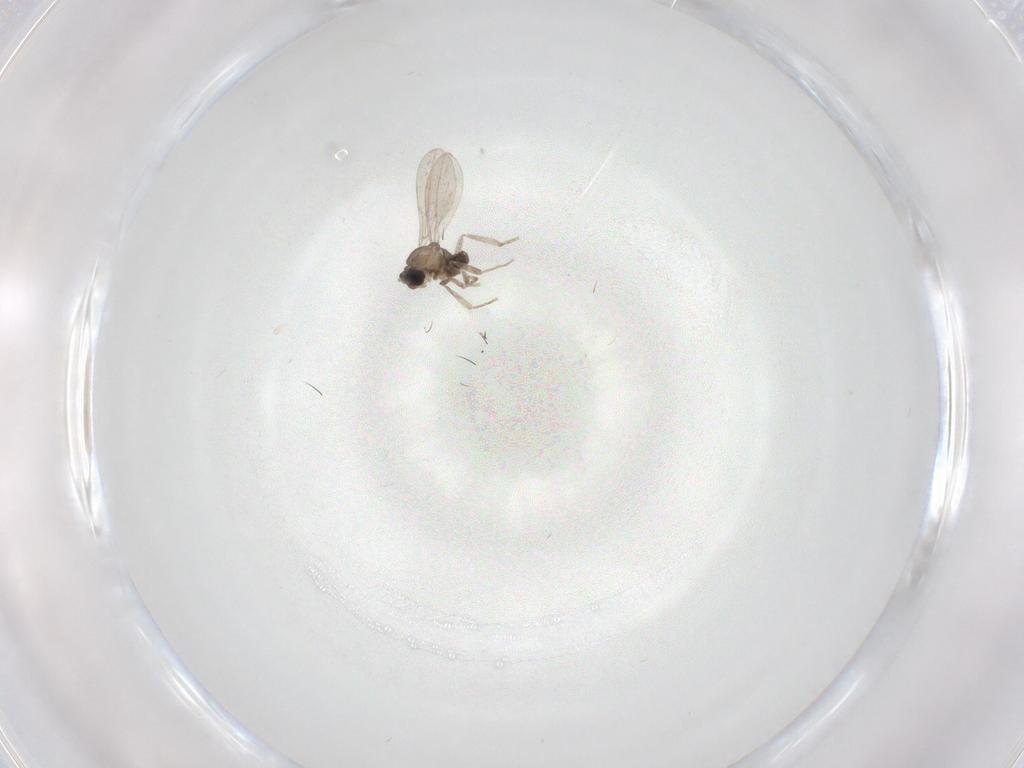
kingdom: Animalia
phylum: Arthropoda
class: Insecta
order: Diptera
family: Cecidomyiidae
